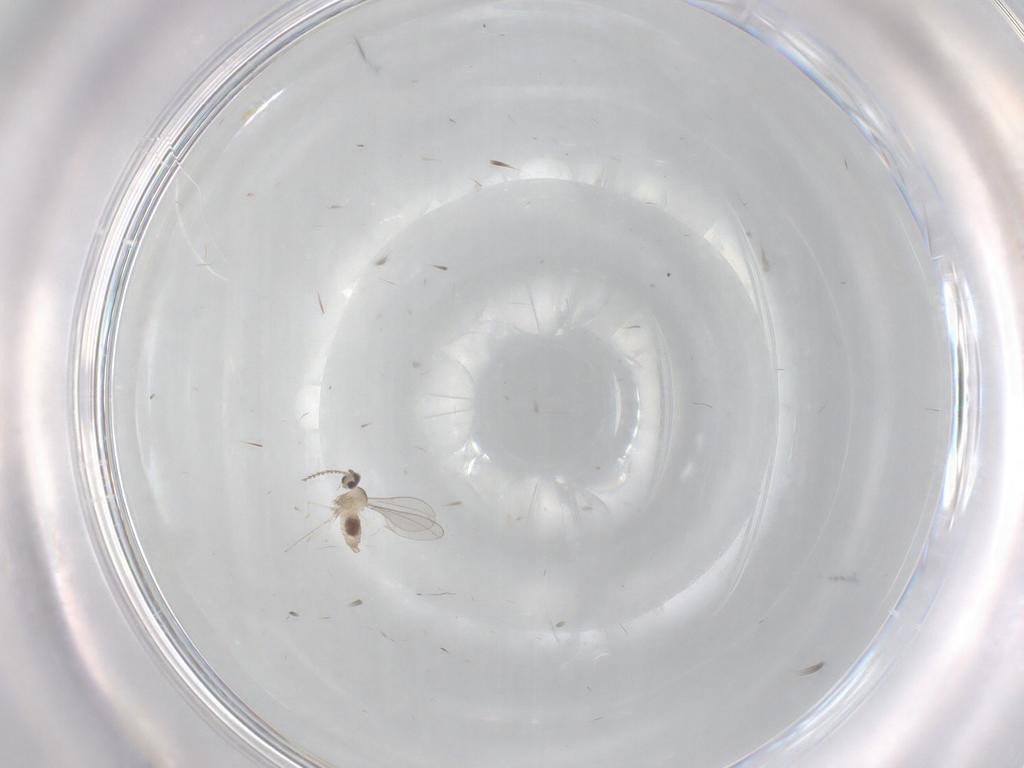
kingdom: Animalia
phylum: Arthropoda
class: Insecta
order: Diptera
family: Cecidomyiidae
